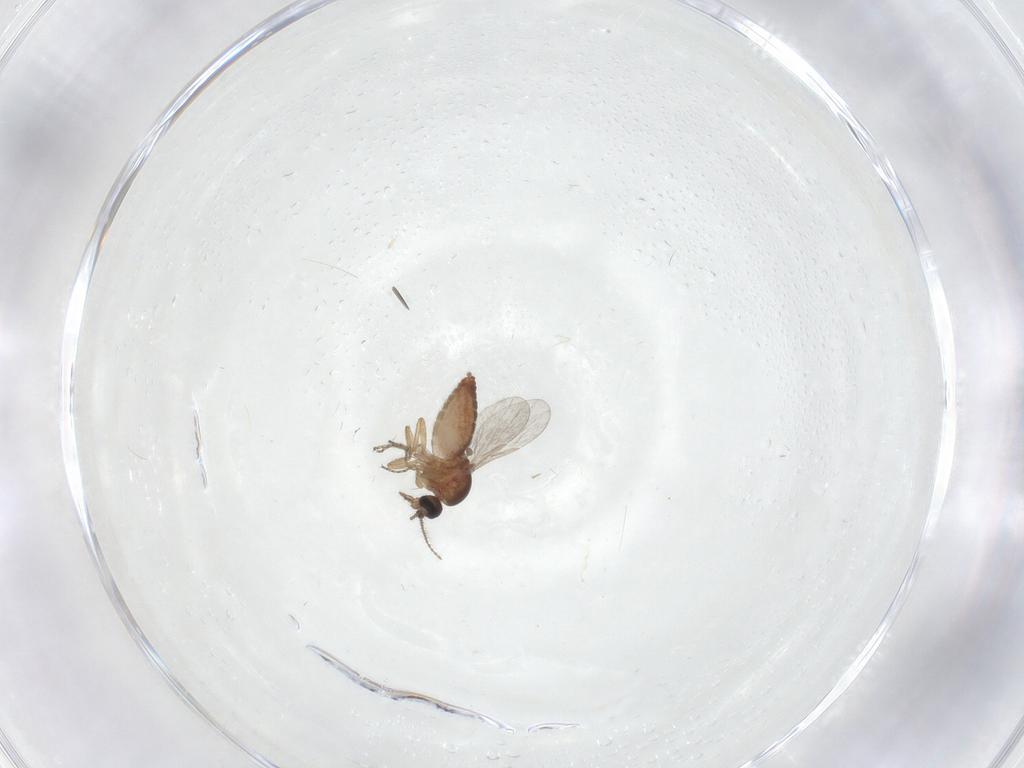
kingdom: Animalia
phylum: Arthropoda
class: Insecta
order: Diptera
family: Ceratopogonidae
